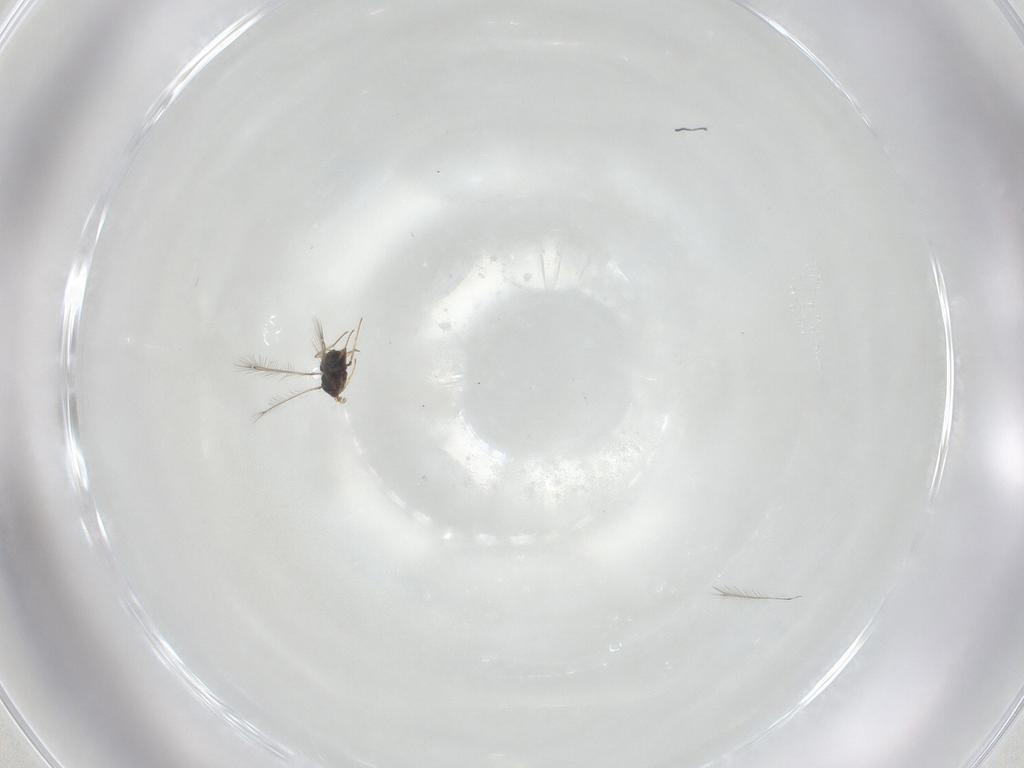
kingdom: Animalia
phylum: Arthropoda
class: Insecta
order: Hymenoptera
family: Mymaridae
